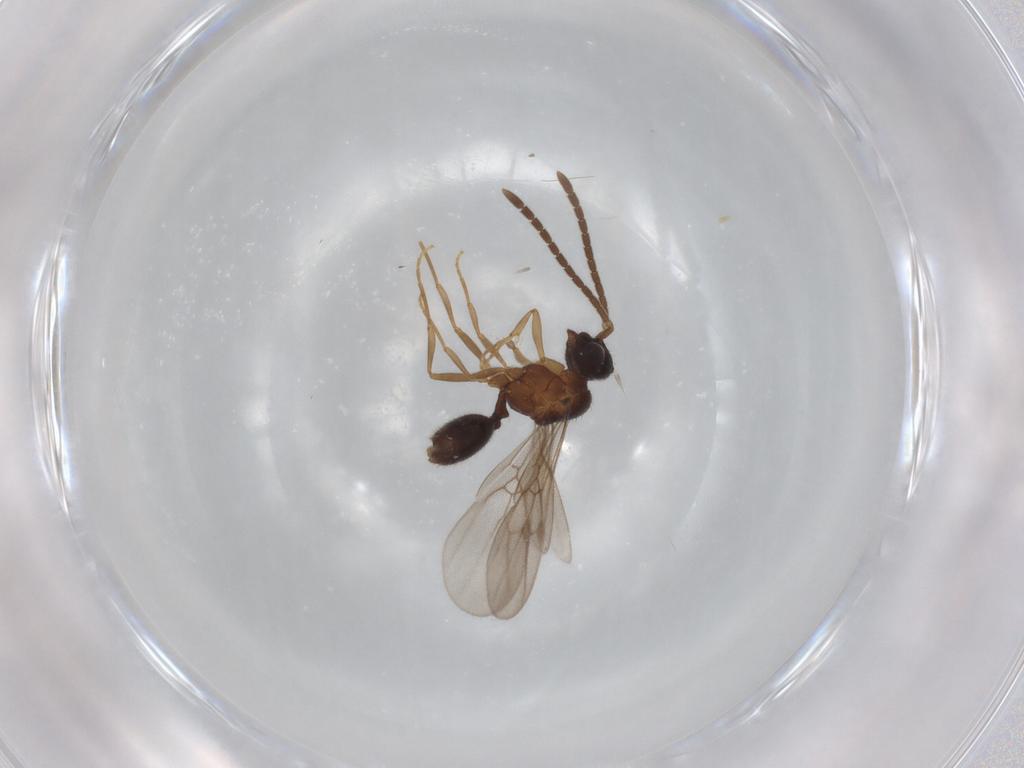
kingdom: Animalia
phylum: Arthropoda
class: Insecta
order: Hymenoptera
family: Formicidae
